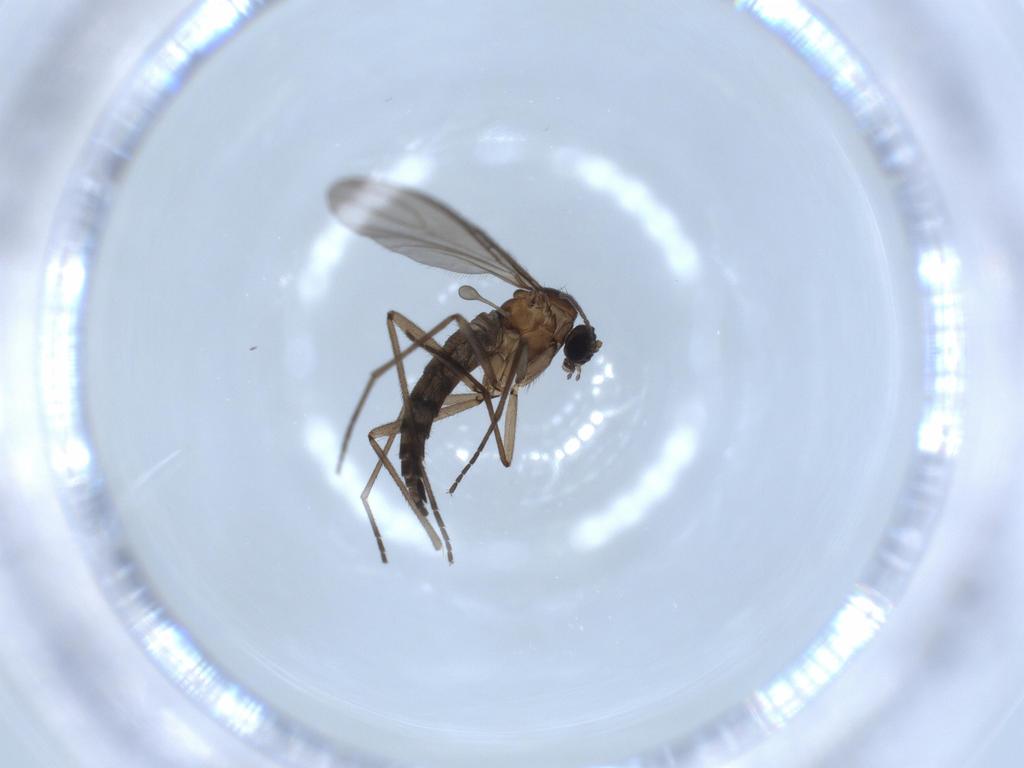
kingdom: Animalia
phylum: Arthropoda
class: Insecta
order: Diptera
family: Sciaridae
